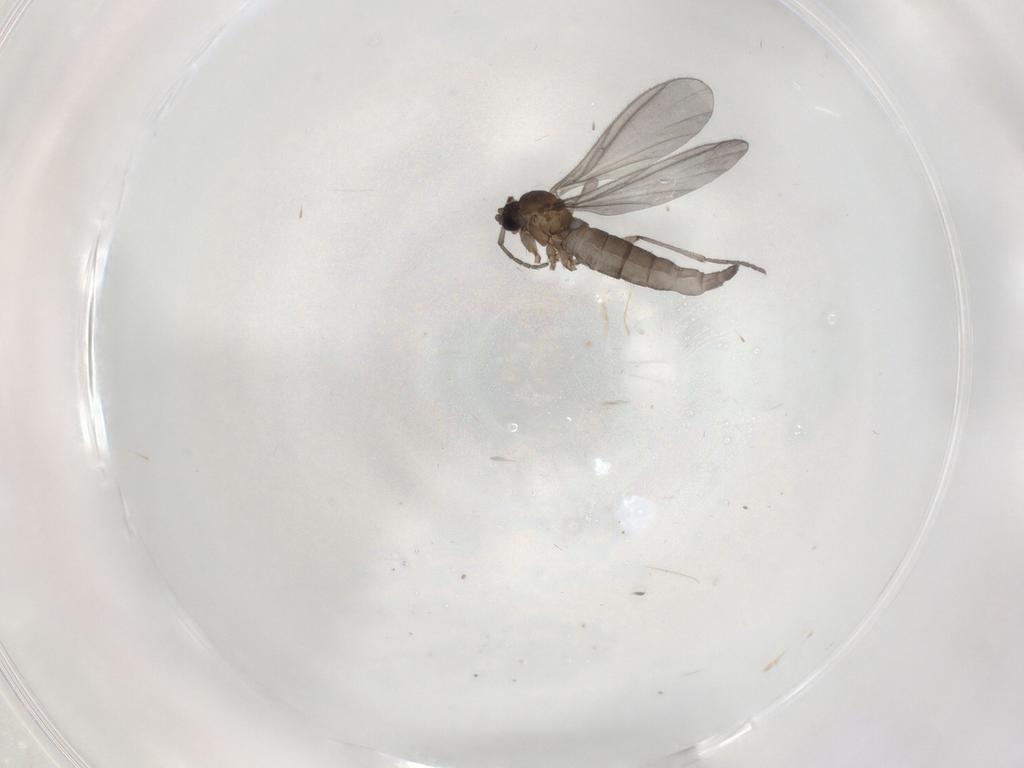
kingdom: Animalia
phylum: Arthropoda
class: Insecta
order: Diptera
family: Sciaridae
